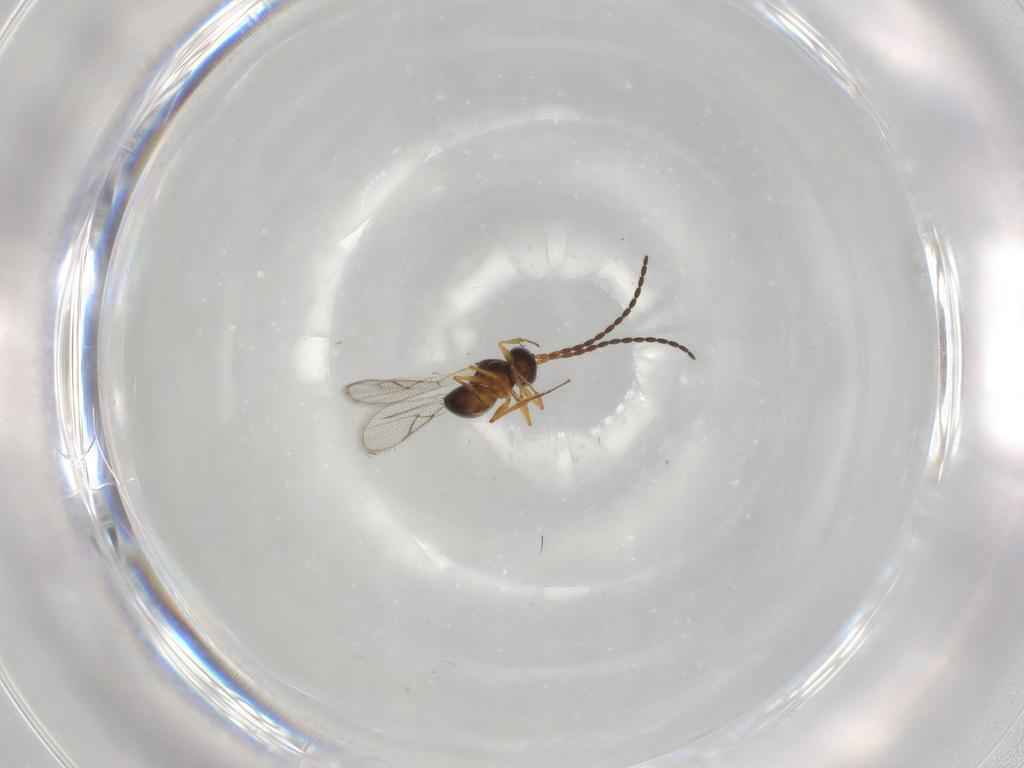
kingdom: Animalia
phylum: Arthropoda
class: Insecta
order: Hymenoptera
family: Figitidae
